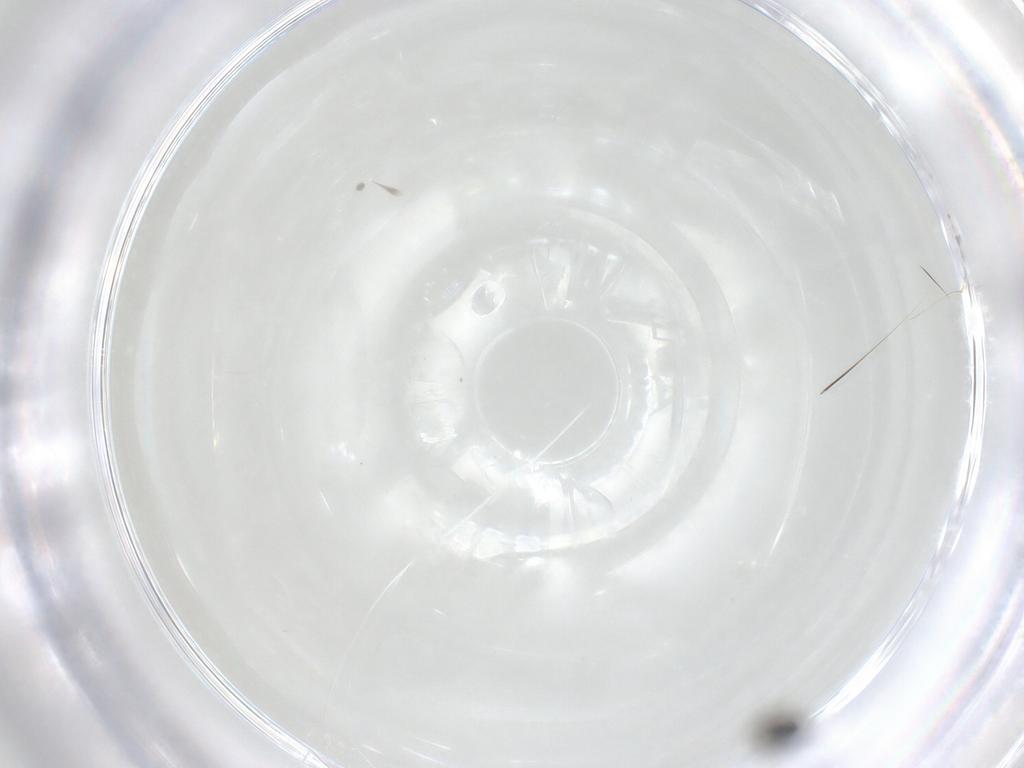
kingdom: Animalia
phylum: Arthropoda
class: Insecta
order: Hymenoptera
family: Scelionidae
